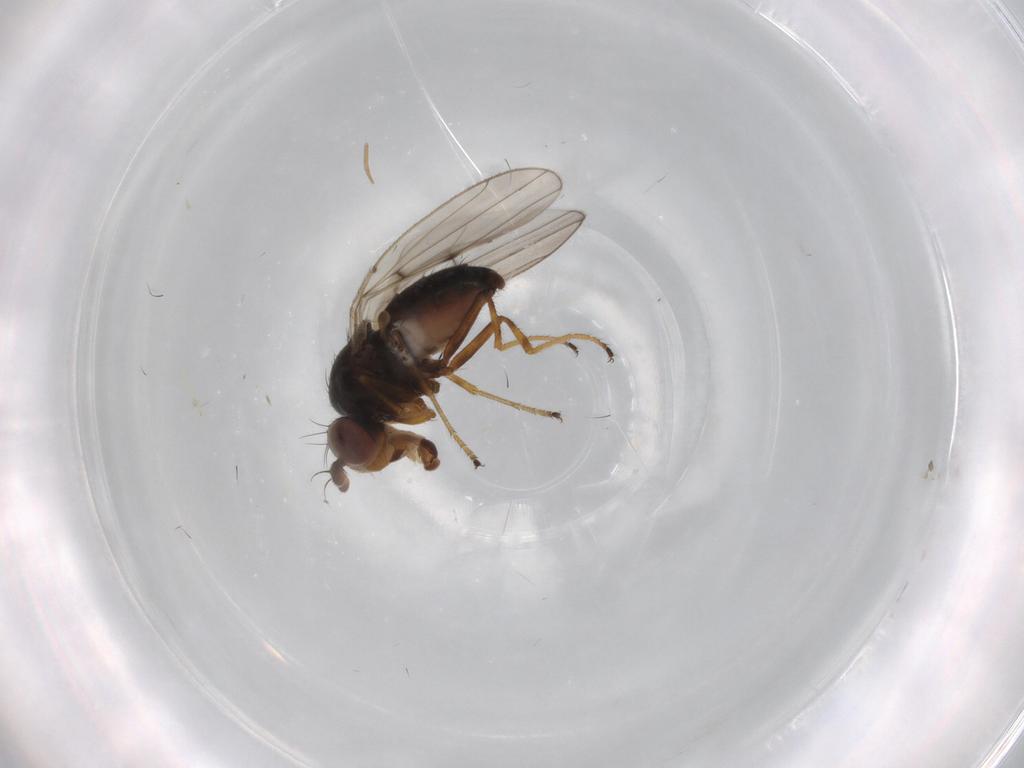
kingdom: Animalia
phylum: Arthropoda
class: Insecta
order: Diptera
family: Ephydridae
